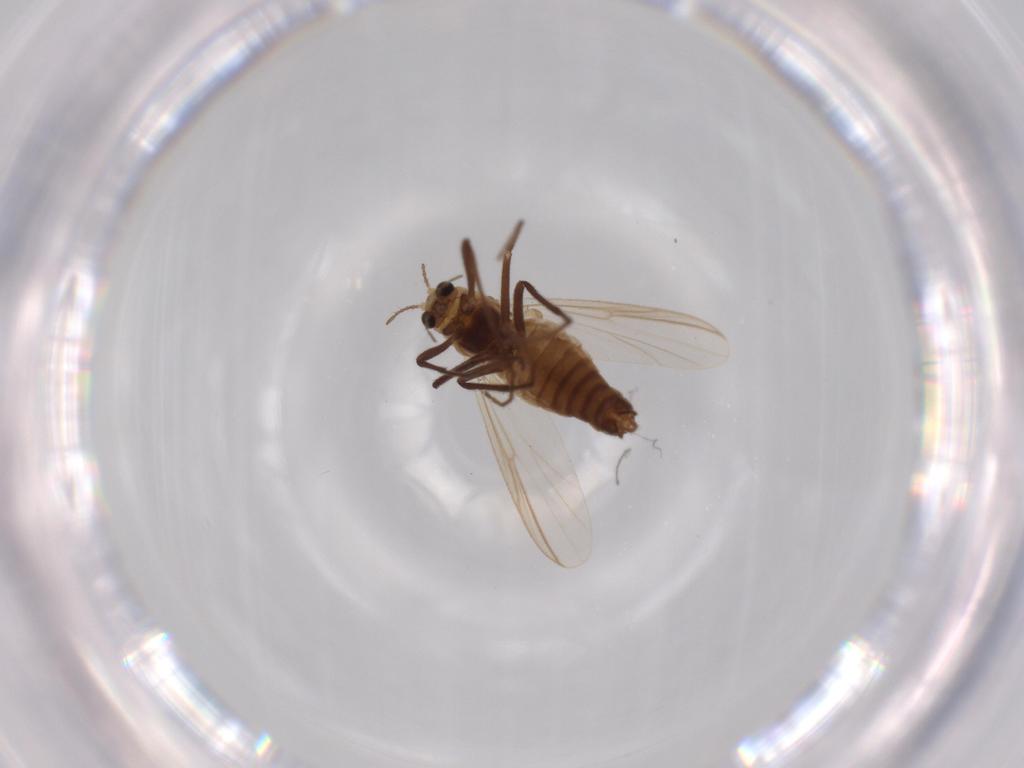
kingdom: Animalia
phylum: Arthropoda
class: Insecta
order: Diptera
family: Chironomidae
